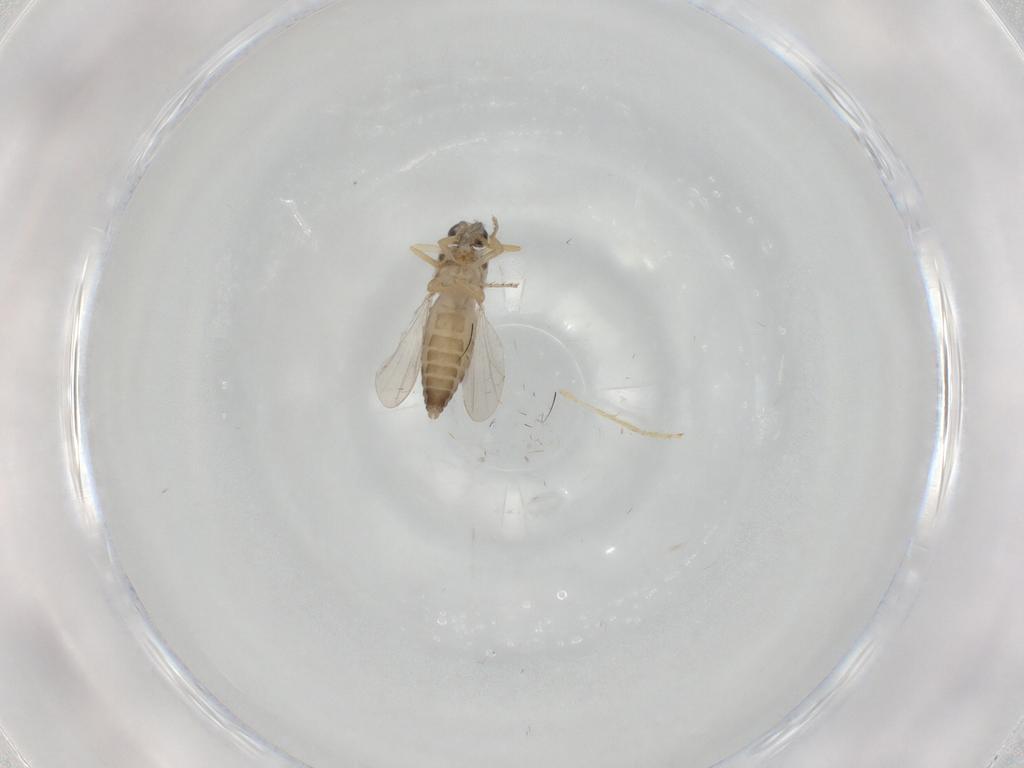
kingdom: Animalia
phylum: Arthropoda
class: Insecta
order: Diptera
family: Ceratopogonidae
